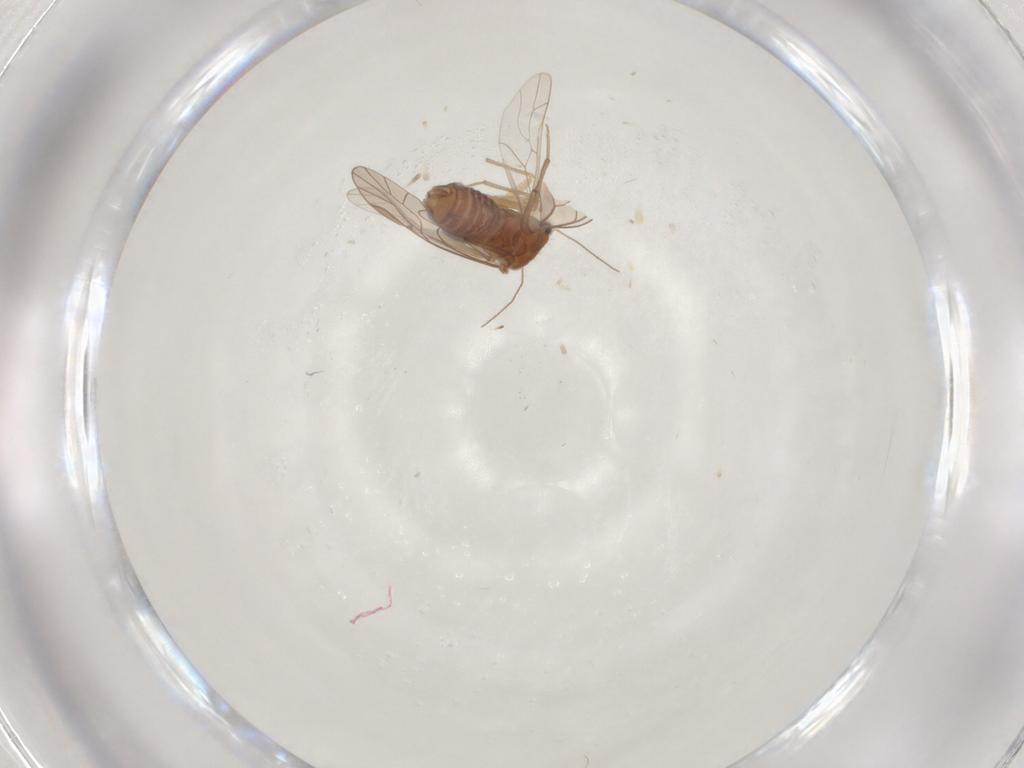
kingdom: Animalia
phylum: Arthropoda
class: Insecta
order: Psocodea
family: Lachesillidae
